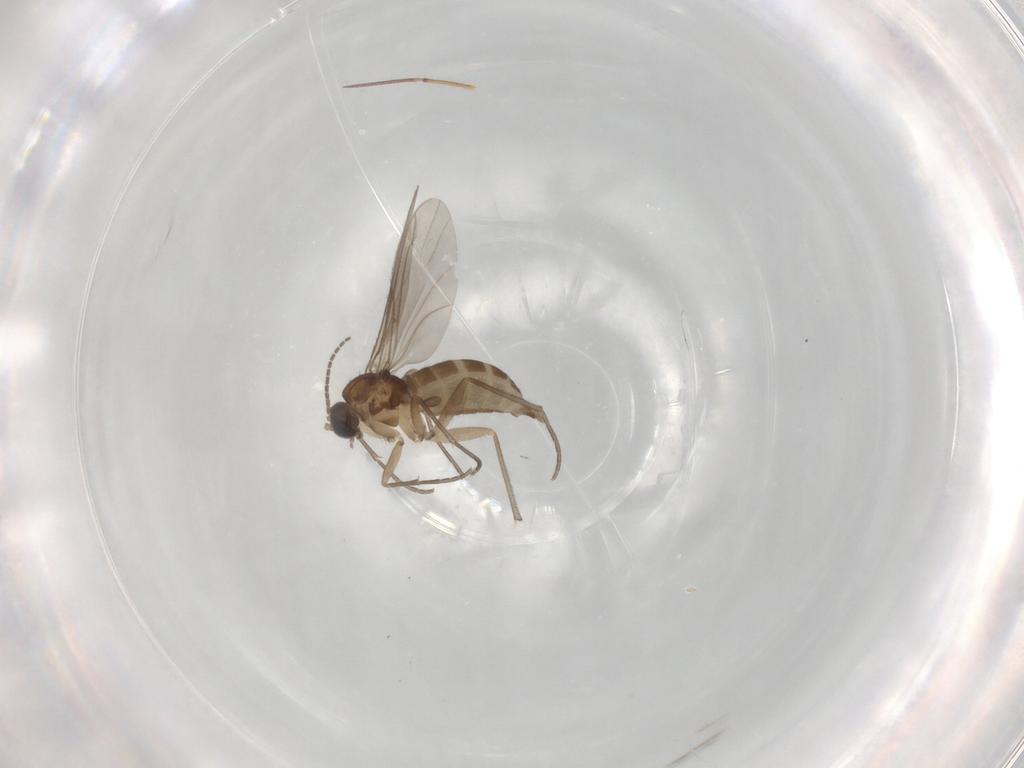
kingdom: Animalia
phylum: Arthropoda
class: Insecta
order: Diptera
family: Sciaridae
